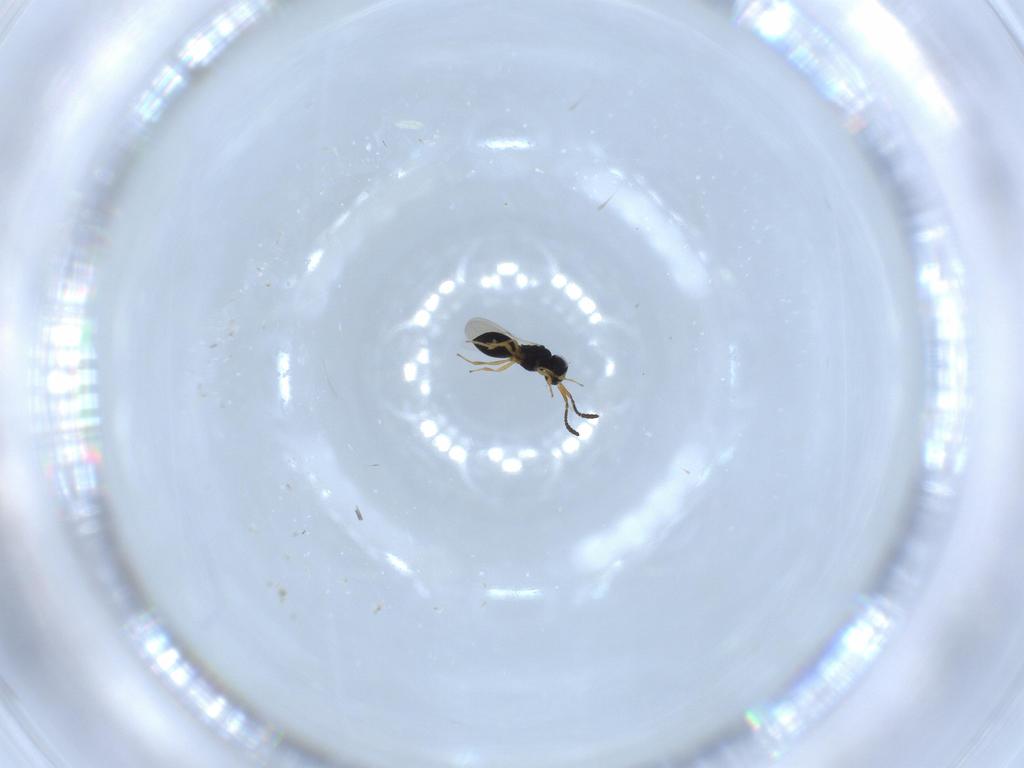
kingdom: Animalia
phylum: Arthropoda
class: Insecta
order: Hymenoptera
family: Scelionidae
